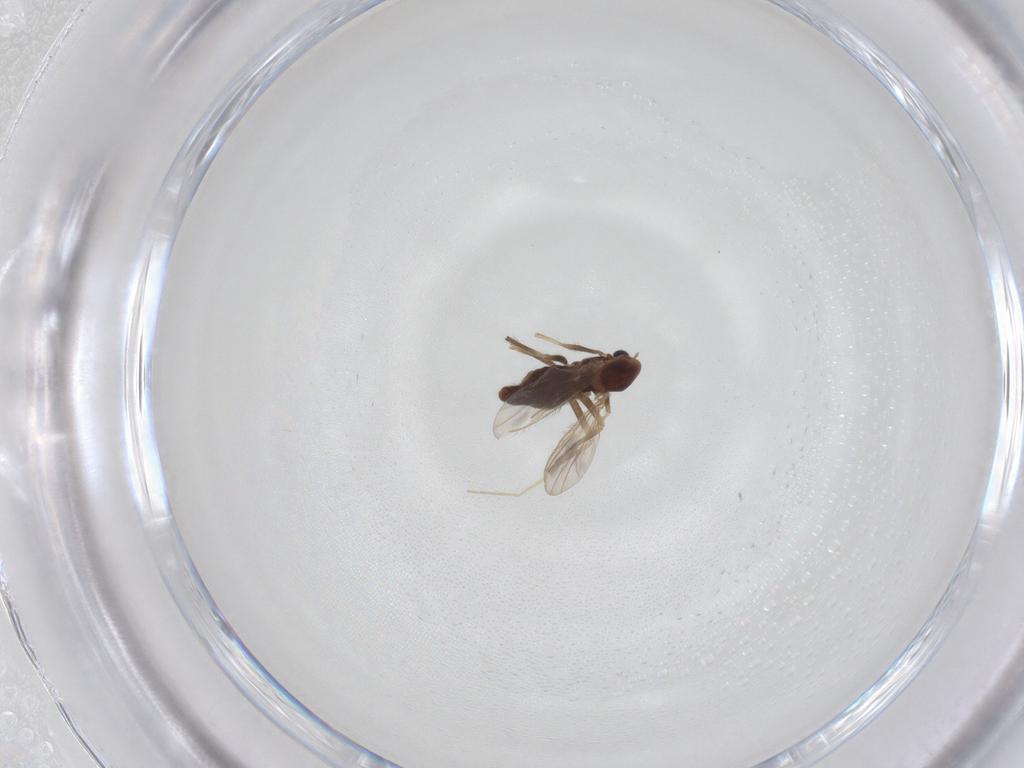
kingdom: Animalia
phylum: Arthropoda
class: Insecta
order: Diptera
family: Chironomidae
